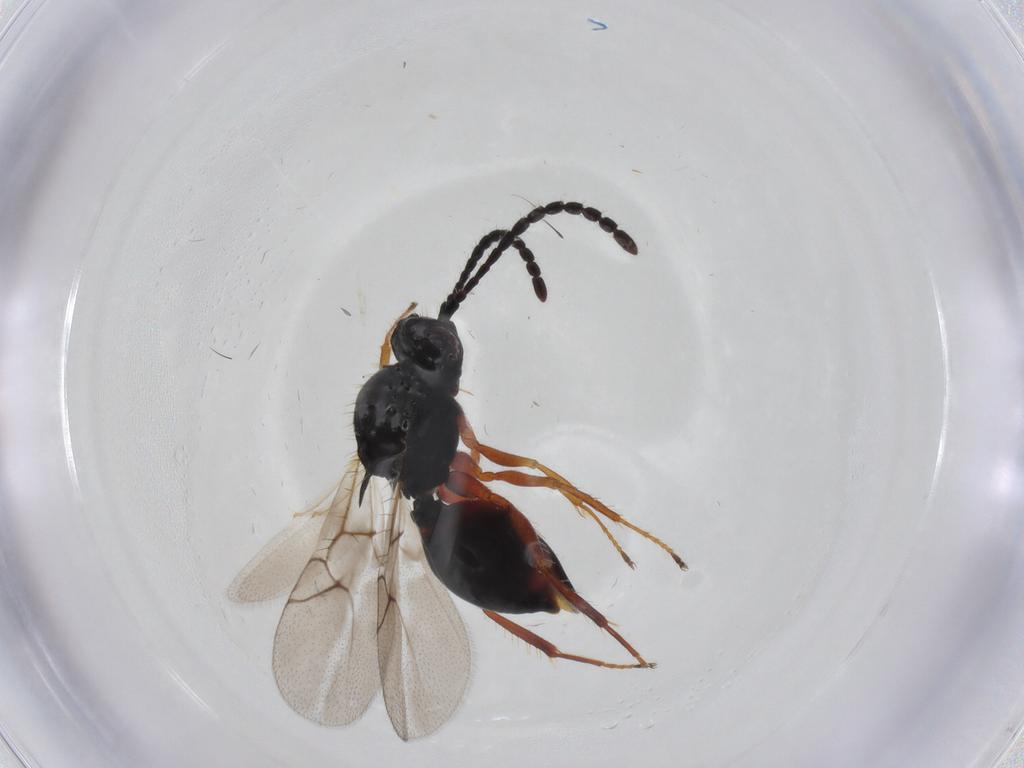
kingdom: Animalia
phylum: Arthropoda
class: Insecta
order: Hymenoptera
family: Figitidae
